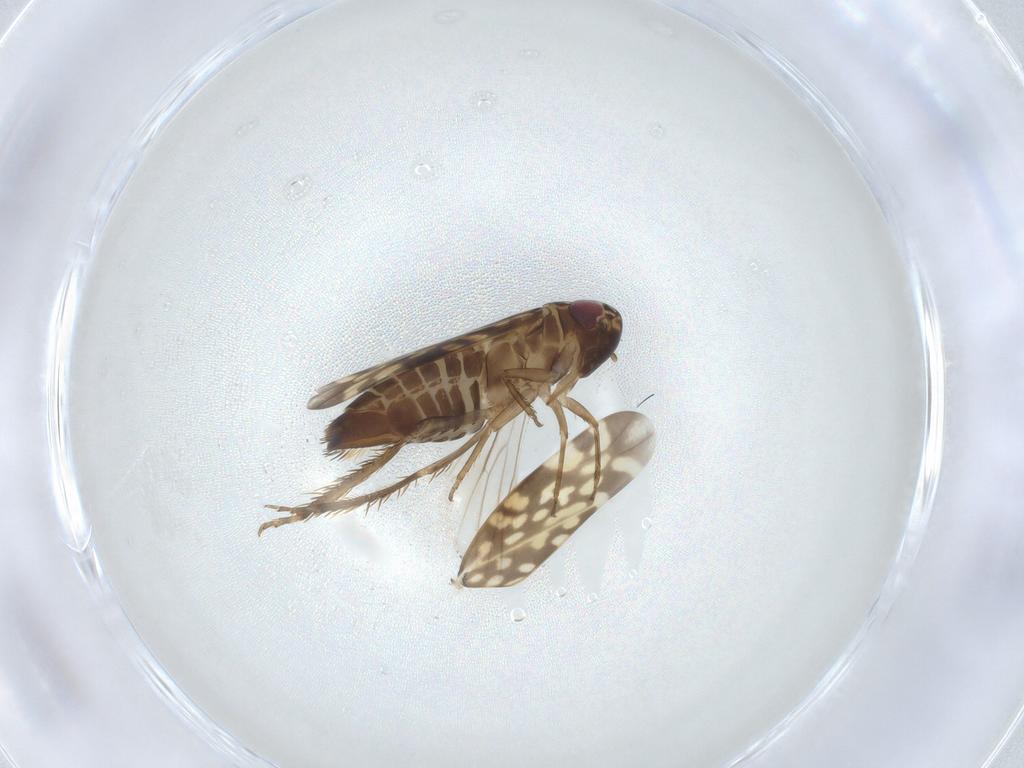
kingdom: Animalia
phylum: Arthropoda
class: Insecta
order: Hemiptera
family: Cicadellidae
